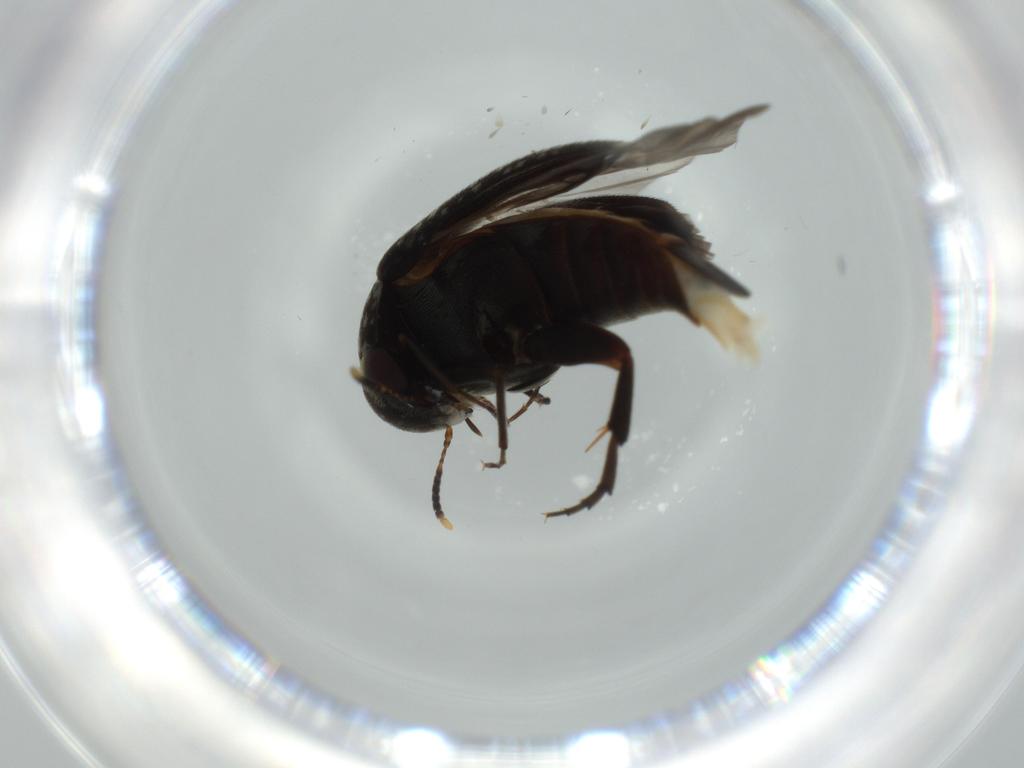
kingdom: Animalia
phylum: Arthropoda
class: Insecta
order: Coleoptera
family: Mordellidae
